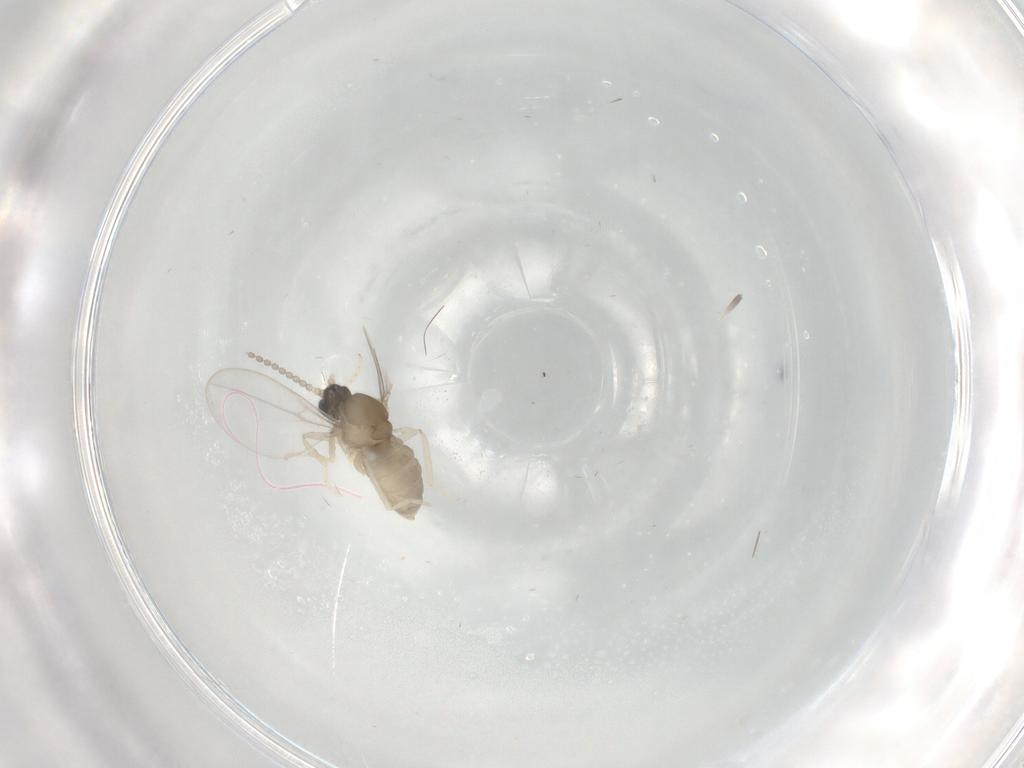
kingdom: Animalia
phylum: Arthropoda
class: Insecta
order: Diptera
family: Cecidomyiidae
